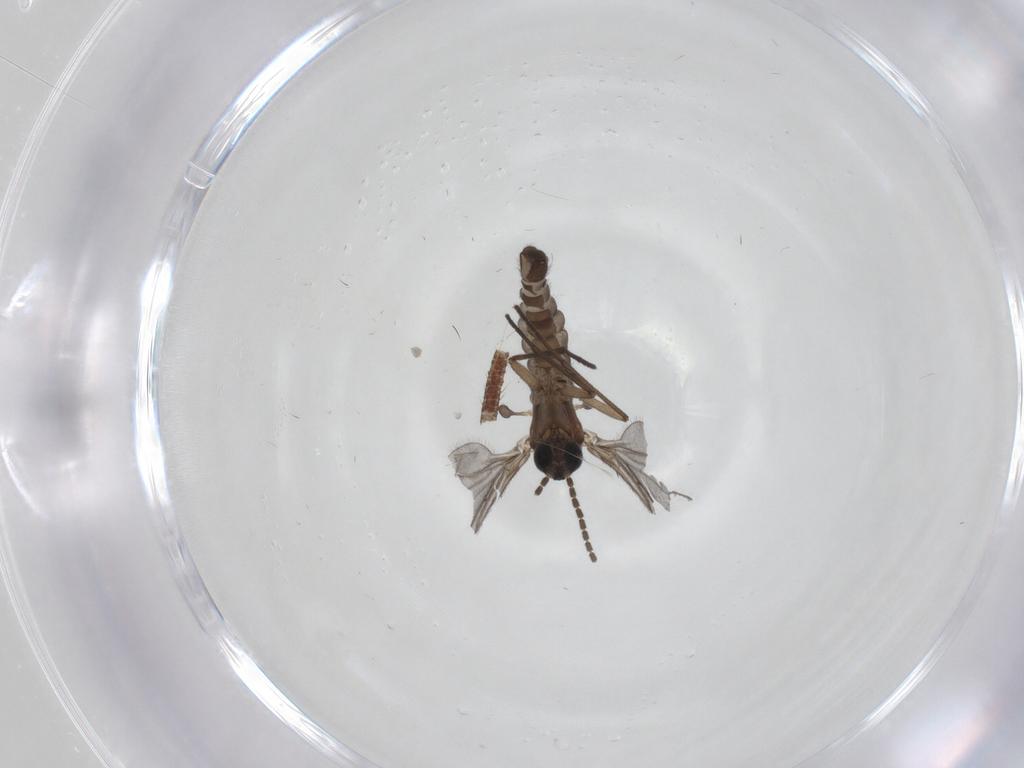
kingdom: Animalia
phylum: Arthropoda
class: Insecta
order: Diptera
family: Sciaridae
